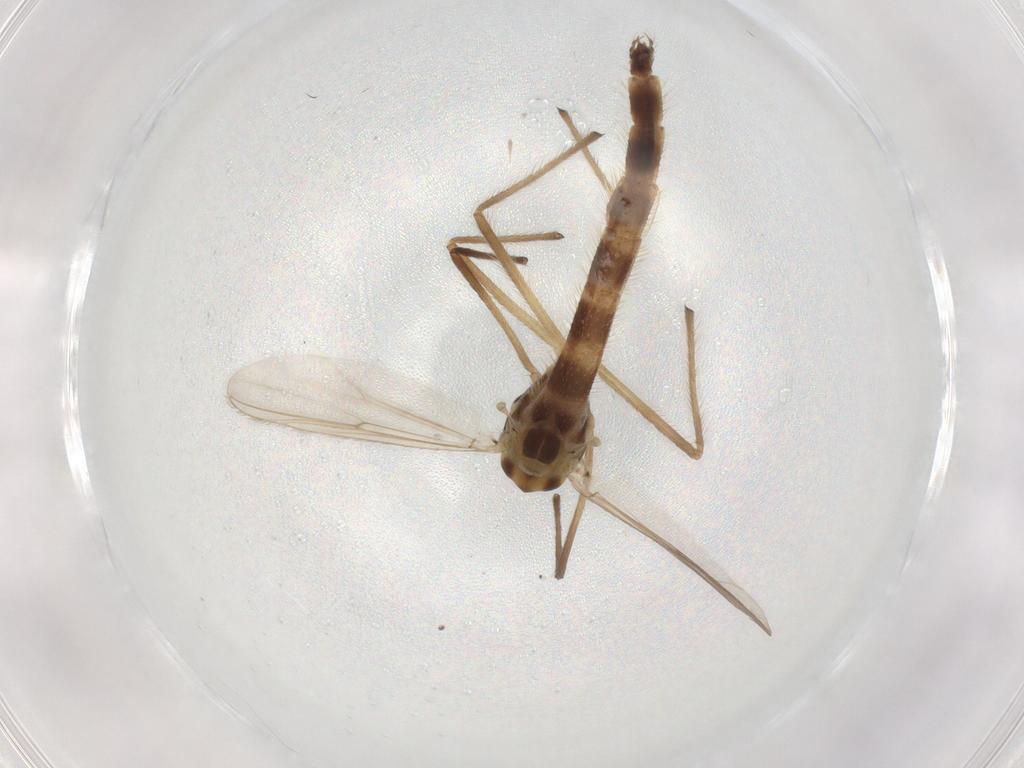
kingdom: Animalia
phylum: Arthropoda
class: Insecta
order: Diptera
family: Chironomidae
